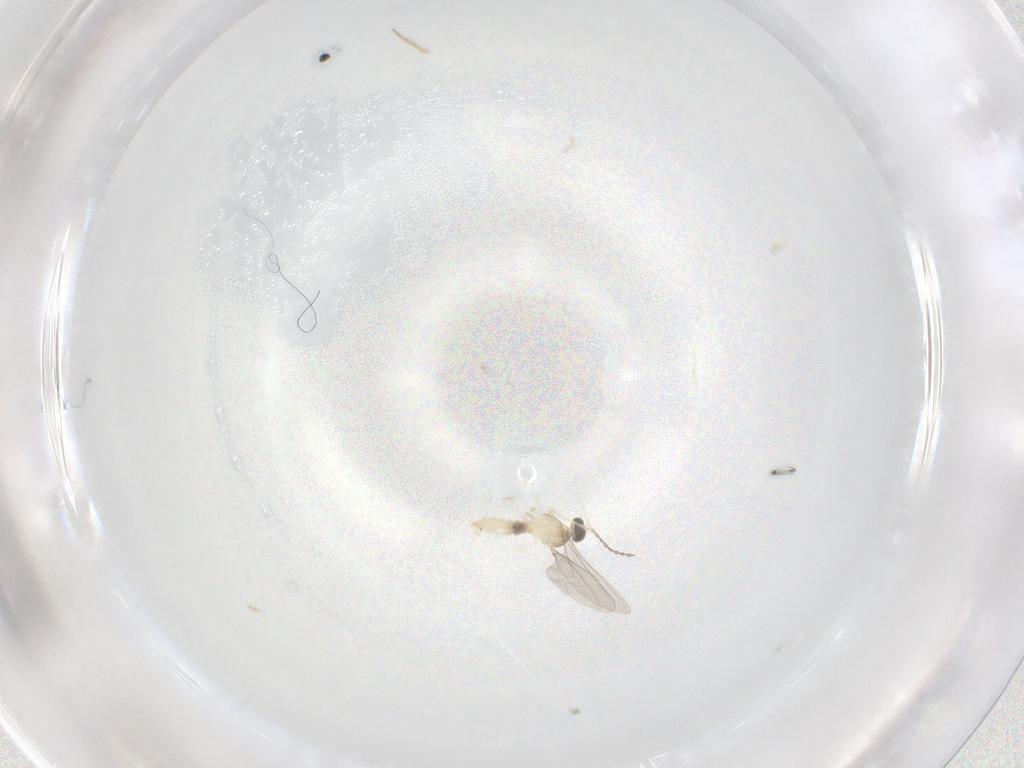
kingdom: Animalia
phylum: Arthropoda
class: Insecta
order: Diptera
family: Cecidomyiidae
